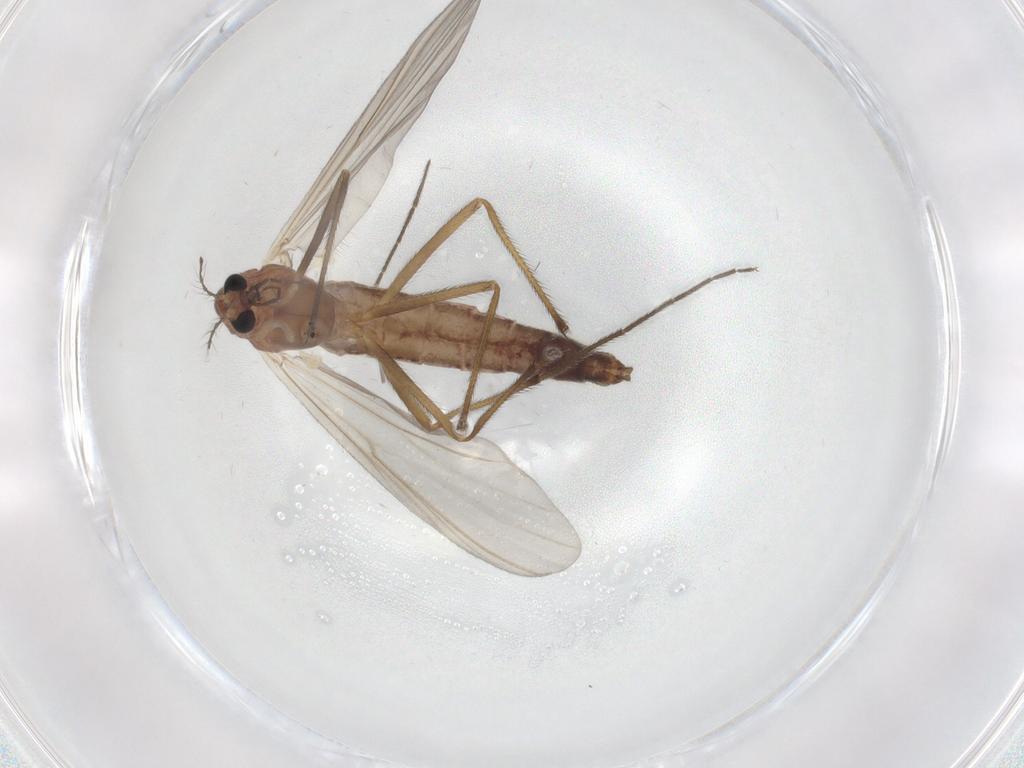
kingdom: Animalia
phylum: Arthropoda
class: Insecta
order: Diptera
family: Chironomidae
